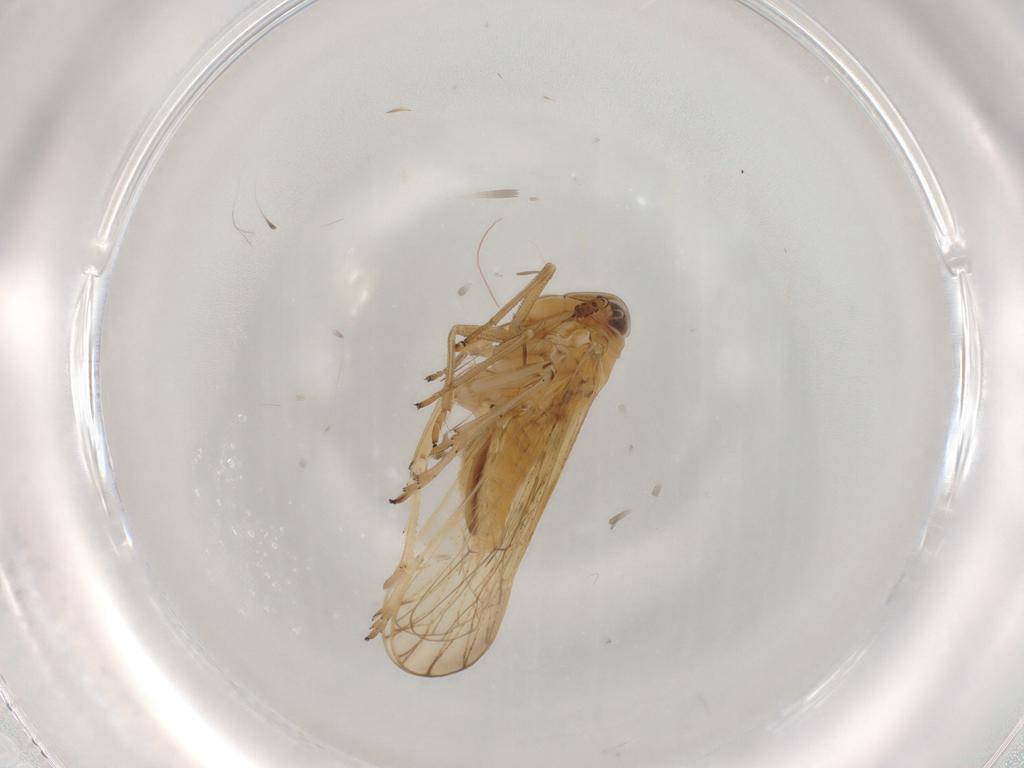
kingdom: Animalia
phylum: Arthropoda
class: Insecta
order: Hemiptera
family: Delphacidae
